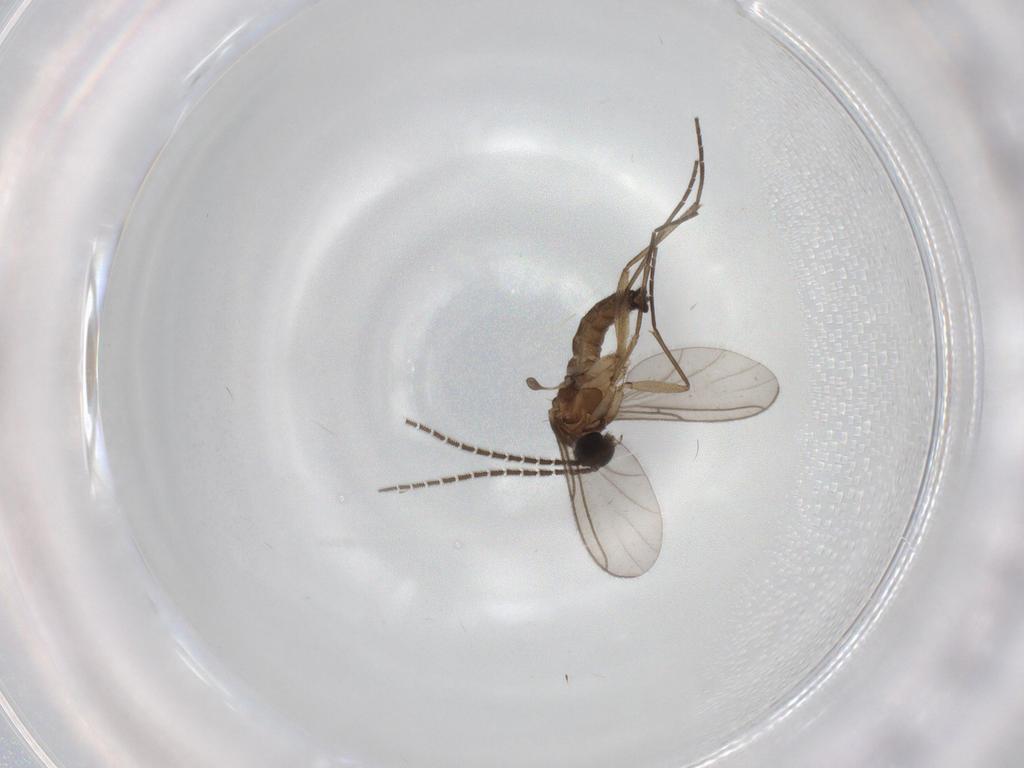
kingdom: Animalia
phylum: Arthropoda
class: Insecta
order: Diptera
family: Sciaridae
